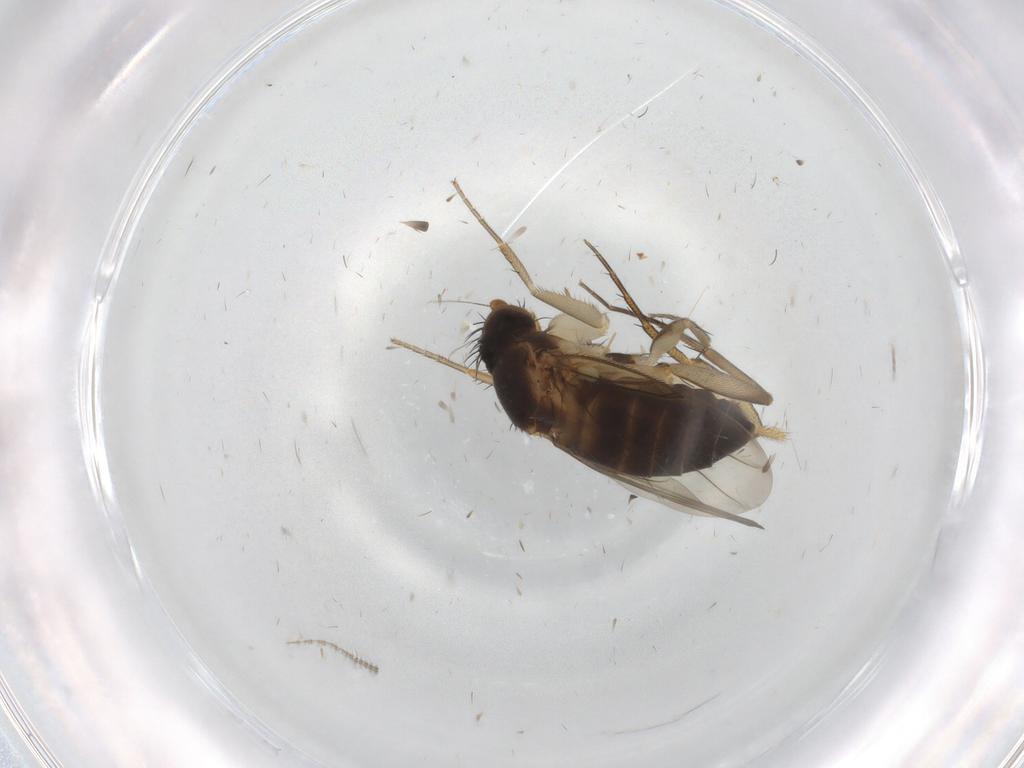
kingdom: Animalia
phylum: Arthropoda
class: Insecta
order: Diptera
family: Phoridae
